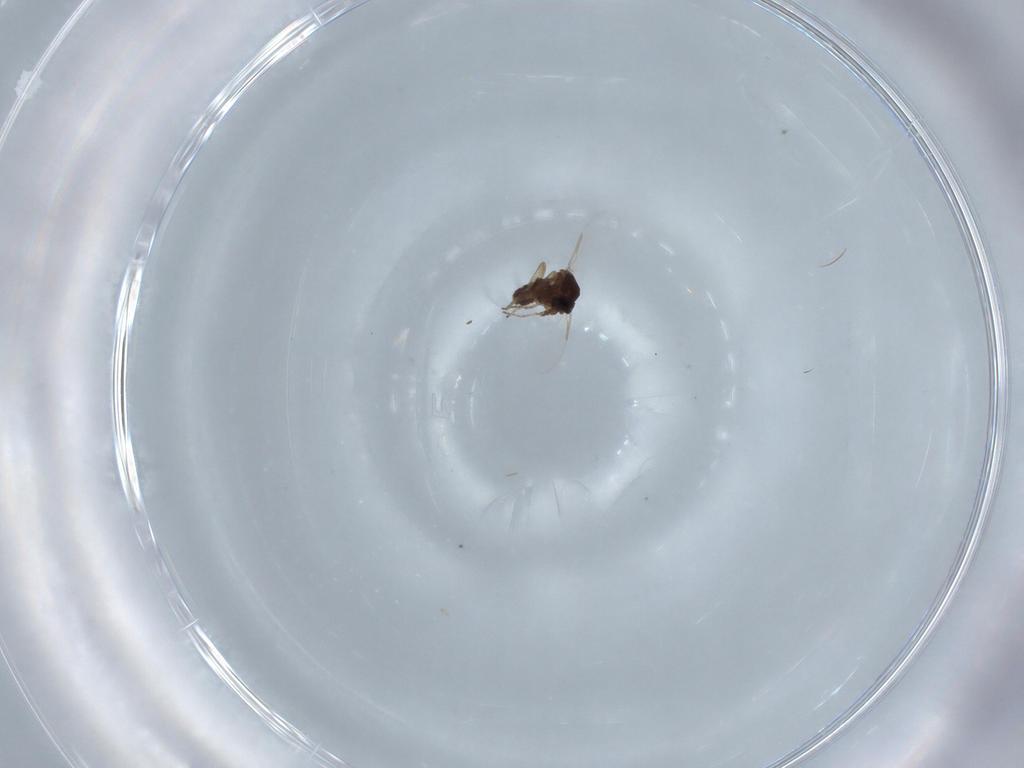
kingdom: Animalia
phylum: Arthropoda
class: Insecta
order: Diptera
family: Ceratopogonidae
